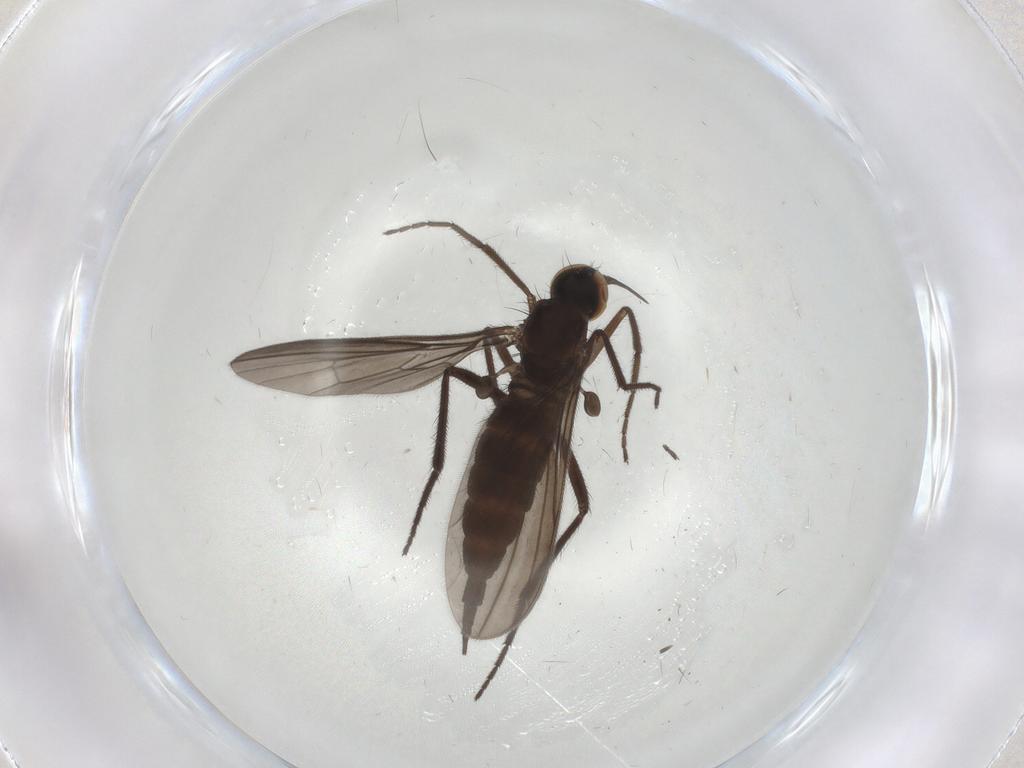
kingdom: Animalia
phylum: Arthropoda
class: Insecta
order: Diptera
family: Empididae
